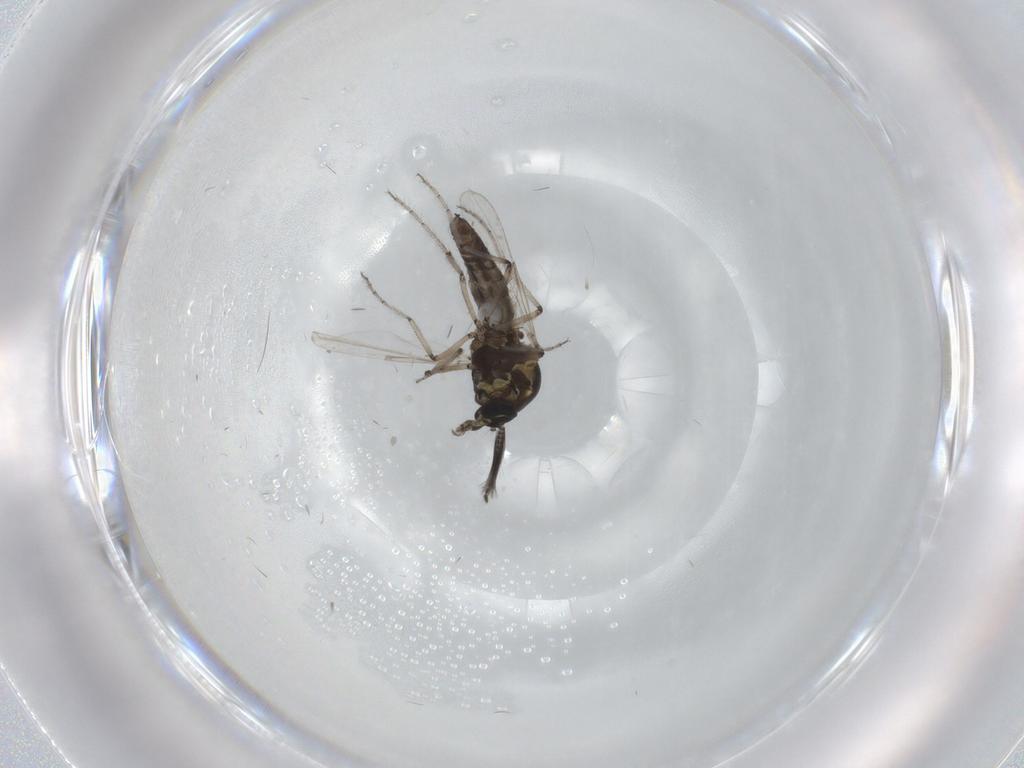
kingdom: Animalia
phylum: Arthropoda
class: Insecta
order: Diptera
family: Ceratopogonidae
